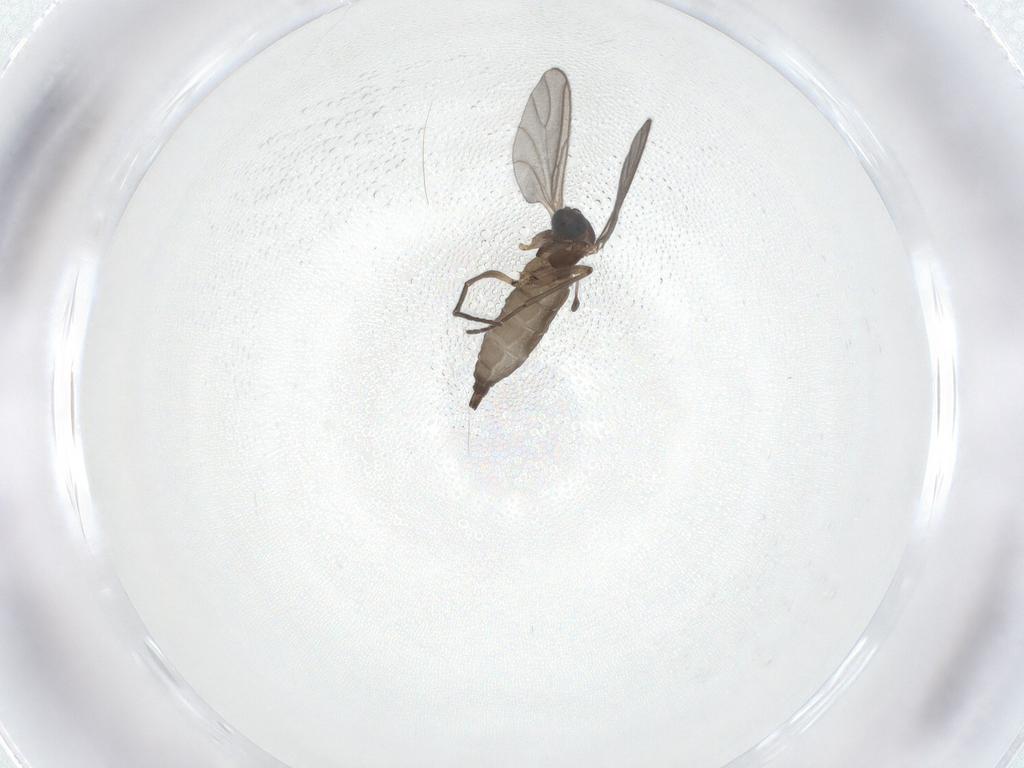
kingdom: Animalia
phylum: Arthropoda
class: Insecta
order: Diptera
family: Sciaridae
